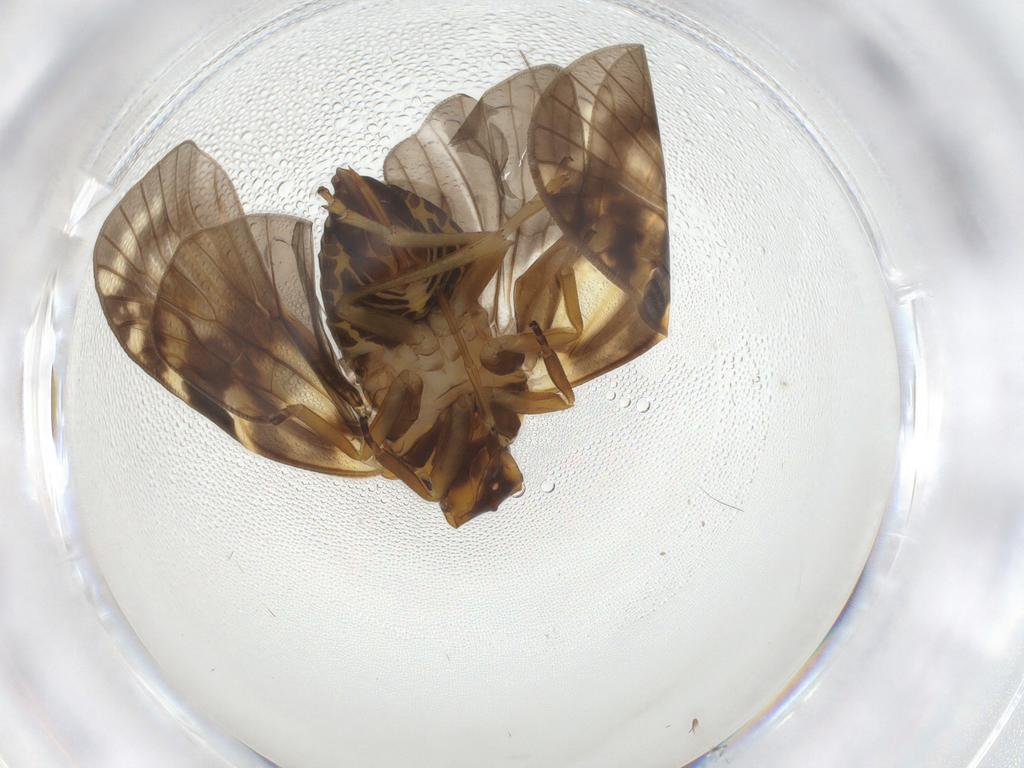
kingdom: Animalia
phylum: Arthropoda
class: Insecta
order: Hemiptera
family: Cixiidae
